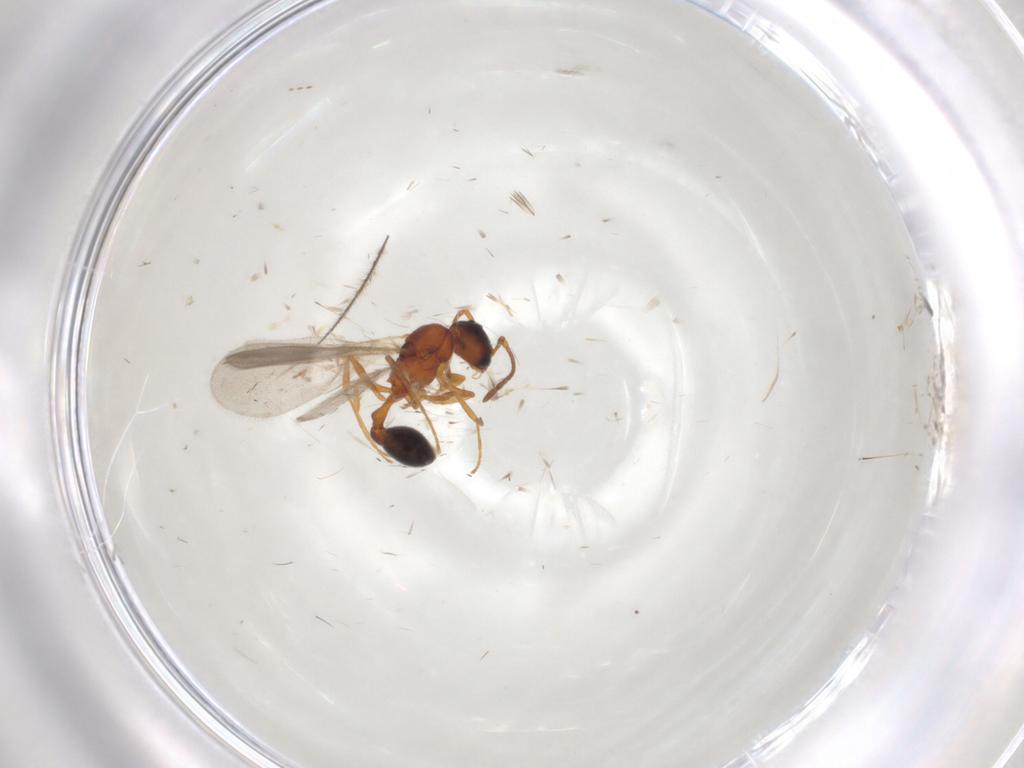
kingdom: Animalia
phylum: Arthropoda
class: Insecta
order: Hymenoptera
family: Formicidae
